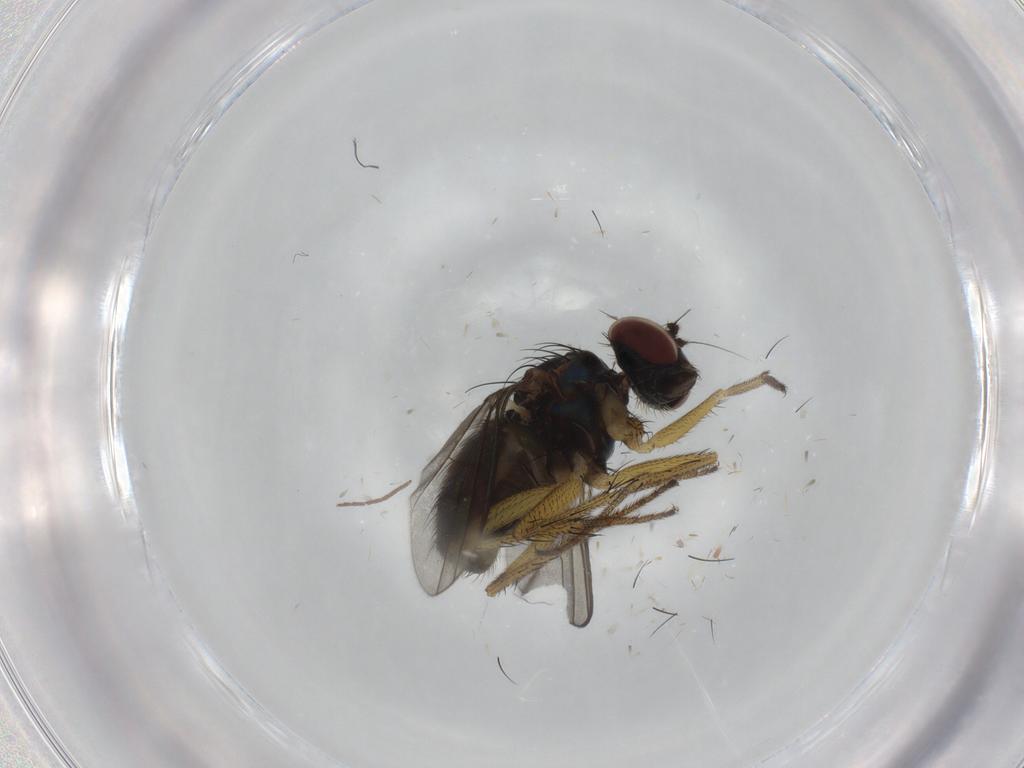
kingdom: Animalia
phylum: Arthropoda
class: Insecta
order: Diptera
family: Dolichopodidae
